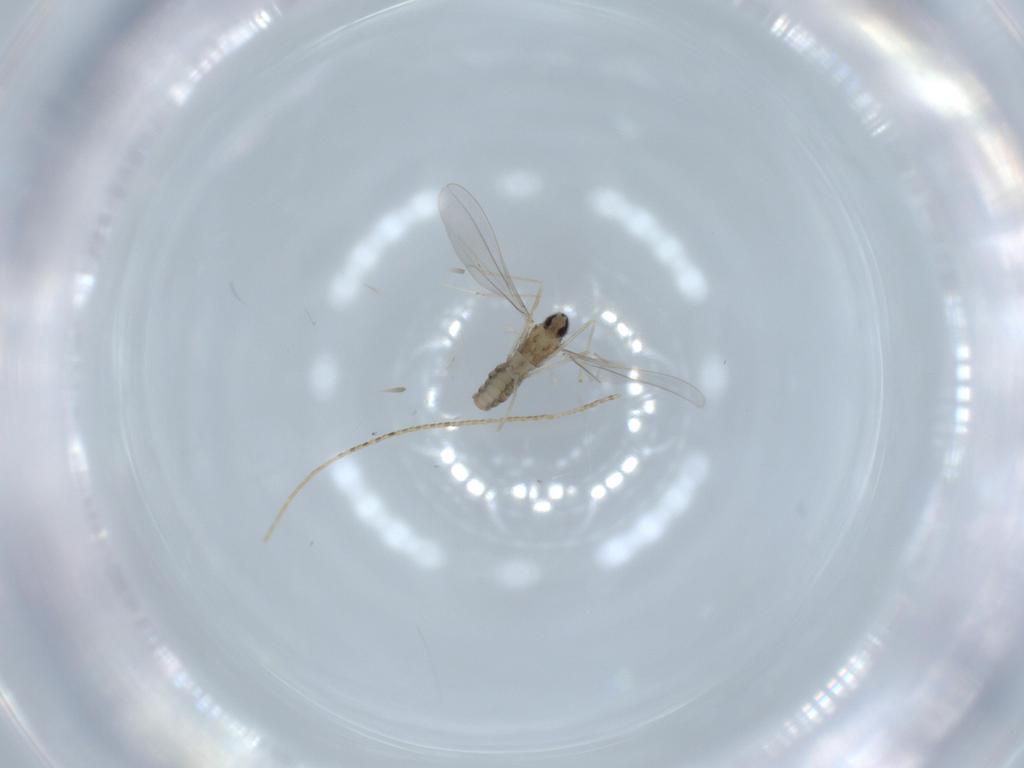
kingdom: Animalia
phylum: Arthropoda
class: Insecta
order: Diptera
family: Cecidomyiidae
